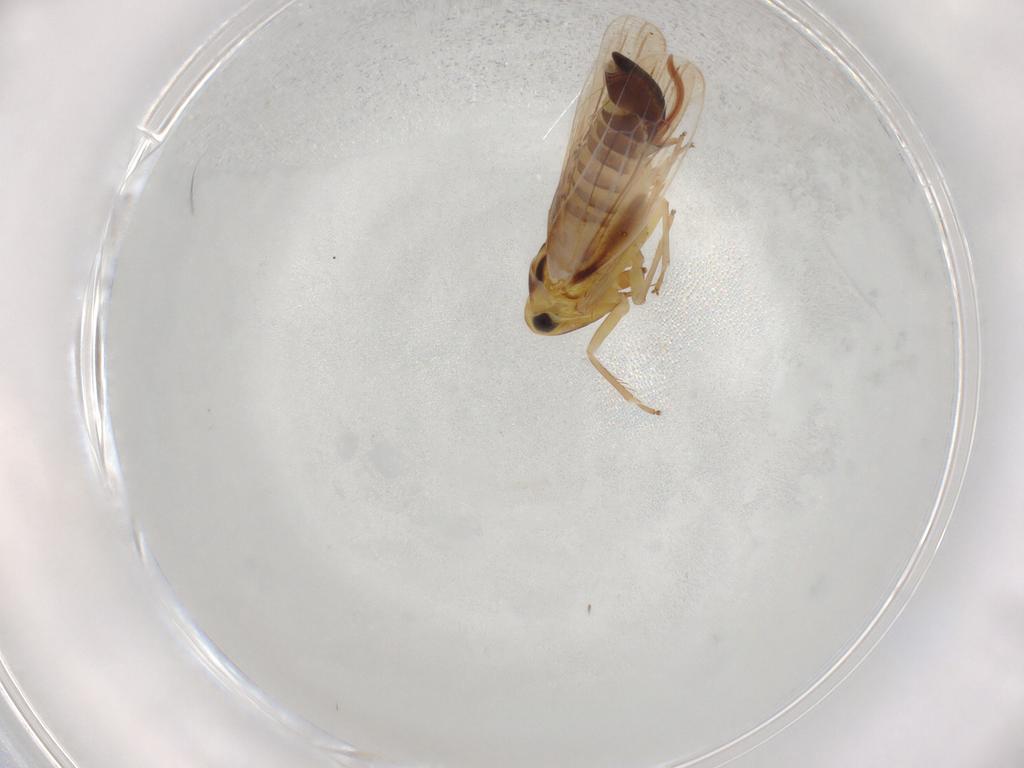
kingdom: Animalia
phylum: Arthropoda
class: Insecta
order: Hemiptera
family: Cicadellidae
